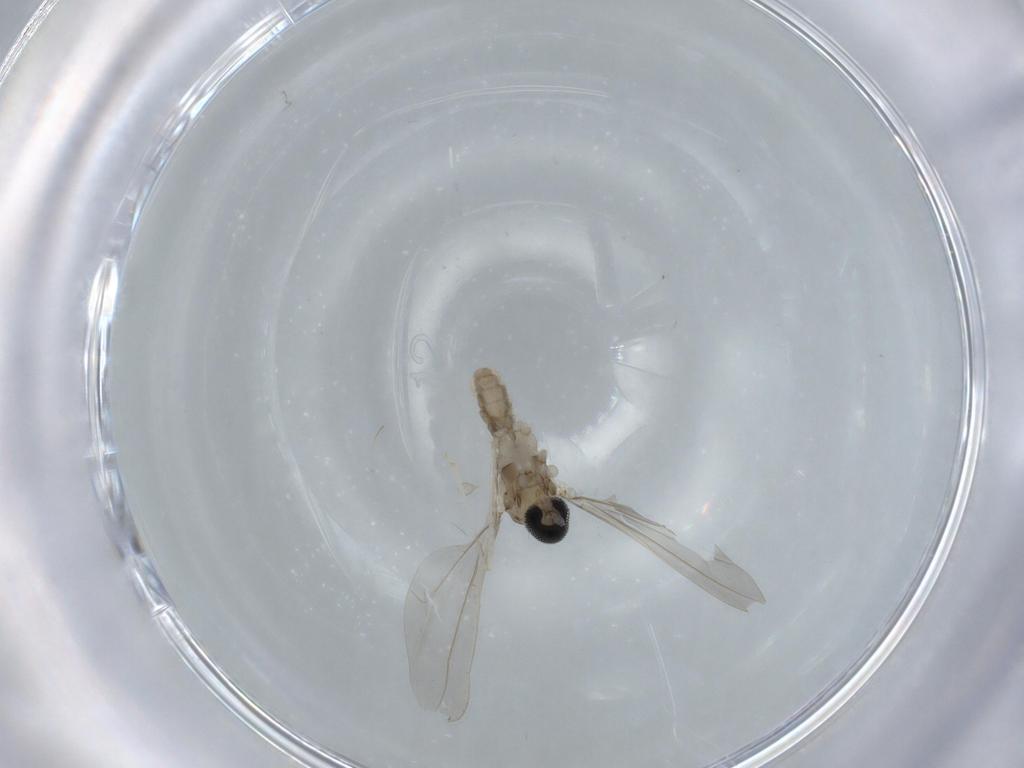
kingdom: Animalia
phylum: Arthropoda
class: Insecta
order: Diptera
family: Cecidomyiidae
